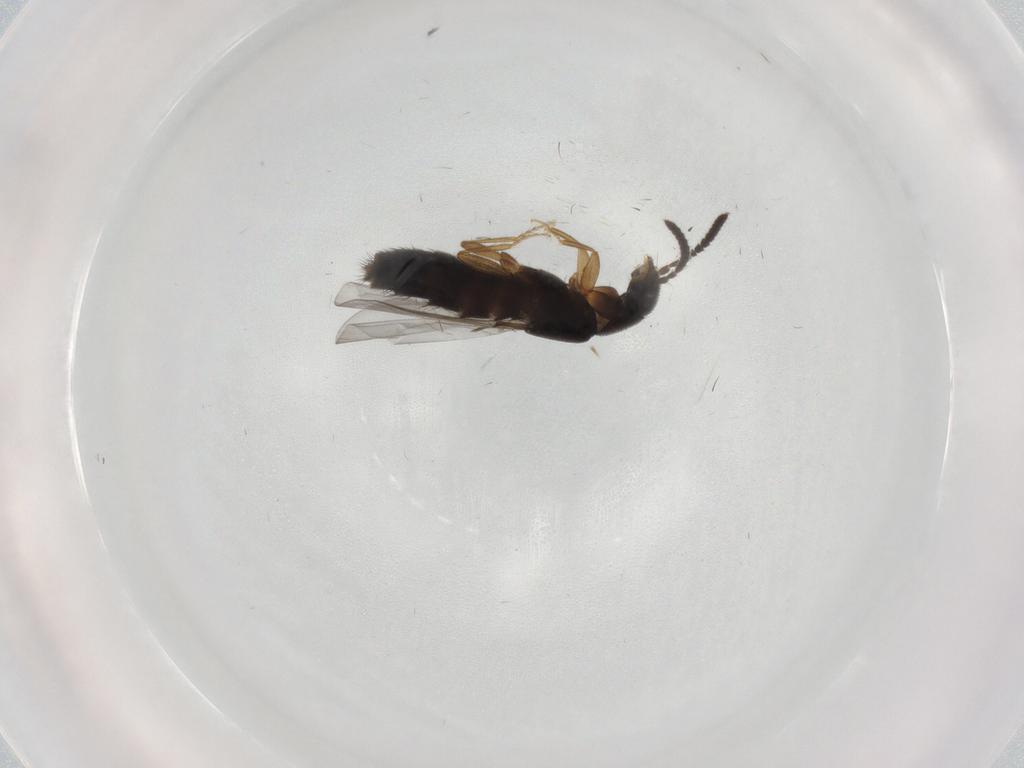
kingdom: Animalia
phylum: Arthropoda
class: Insecta
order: Coleoptera
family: Staphylinidae
